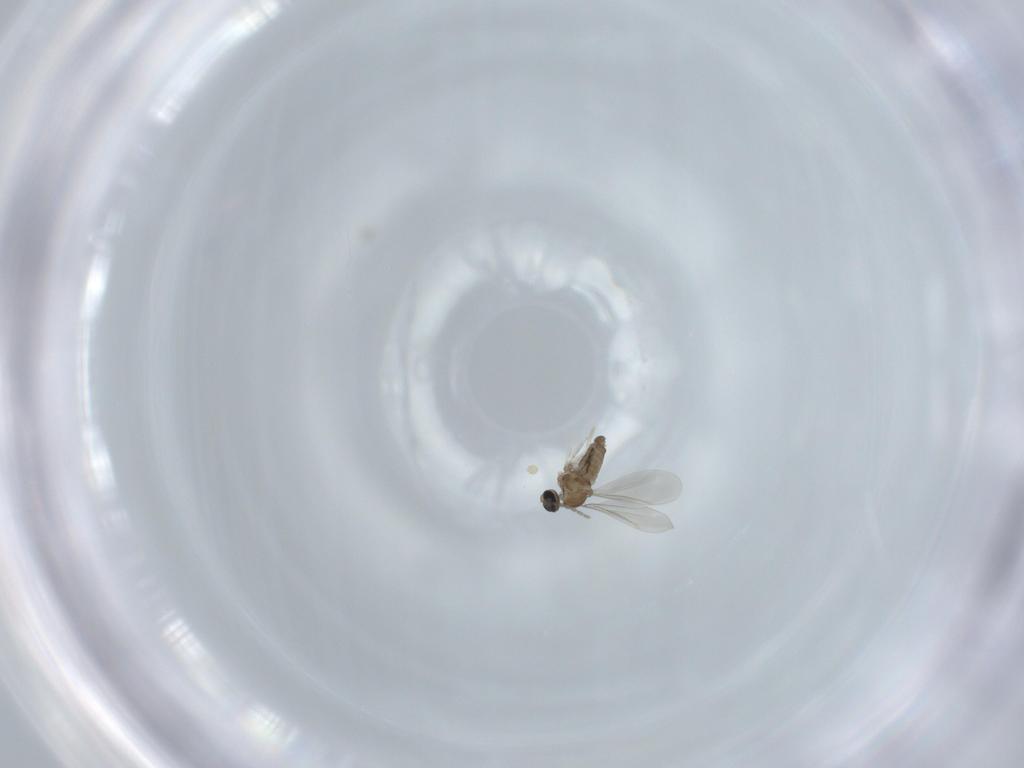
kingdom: Animalia
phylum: Arthropoda
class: Insecta
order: Diptera
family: Cecidomyiidae
